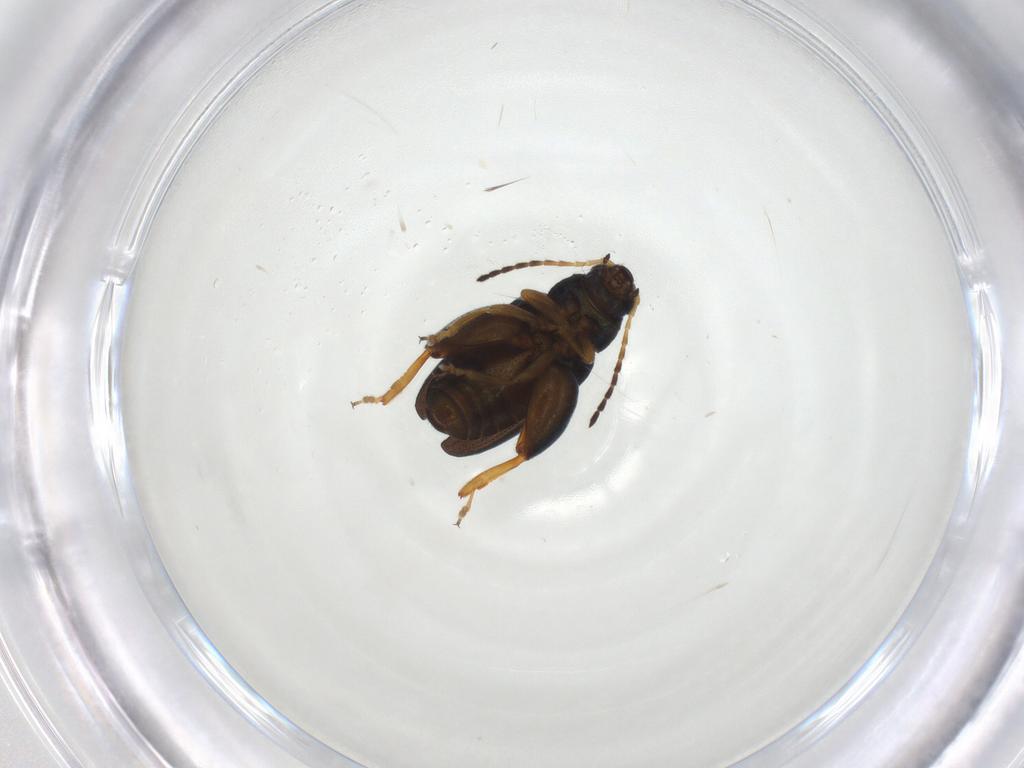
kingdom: Animalia
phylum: Arthropoda
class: Insecta
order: Coleoptera
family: Chrysomelidae
